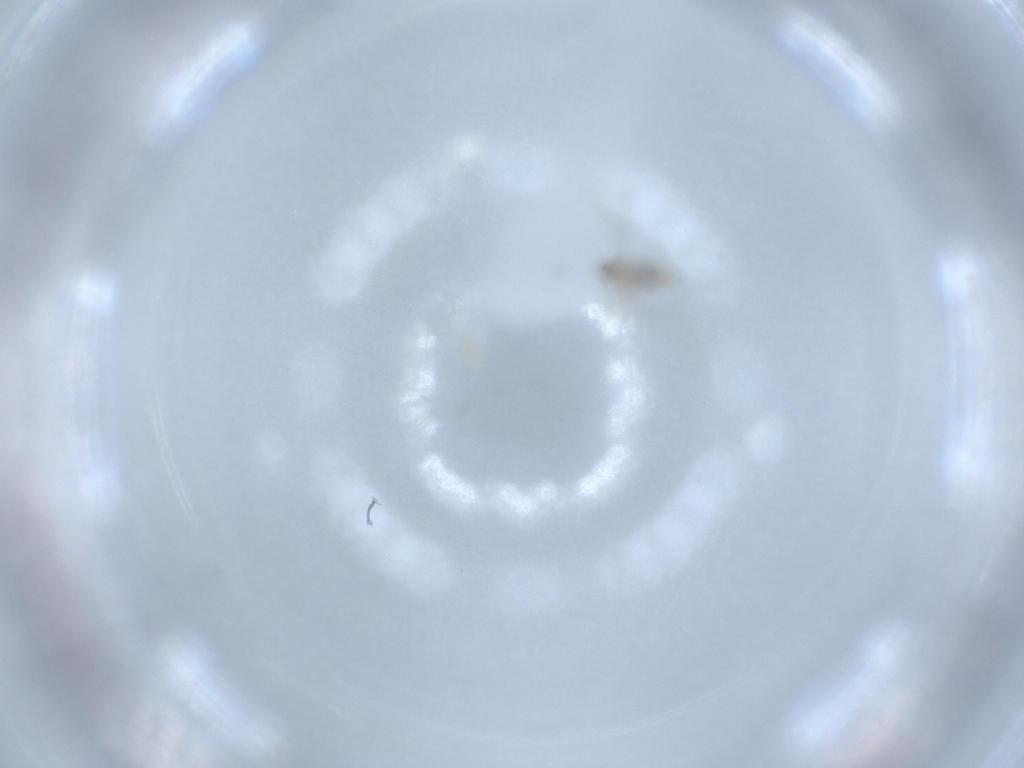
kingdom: Animalia
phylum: Arthropoda
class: Insecta
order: Diptera
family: Cecidomyiidae
